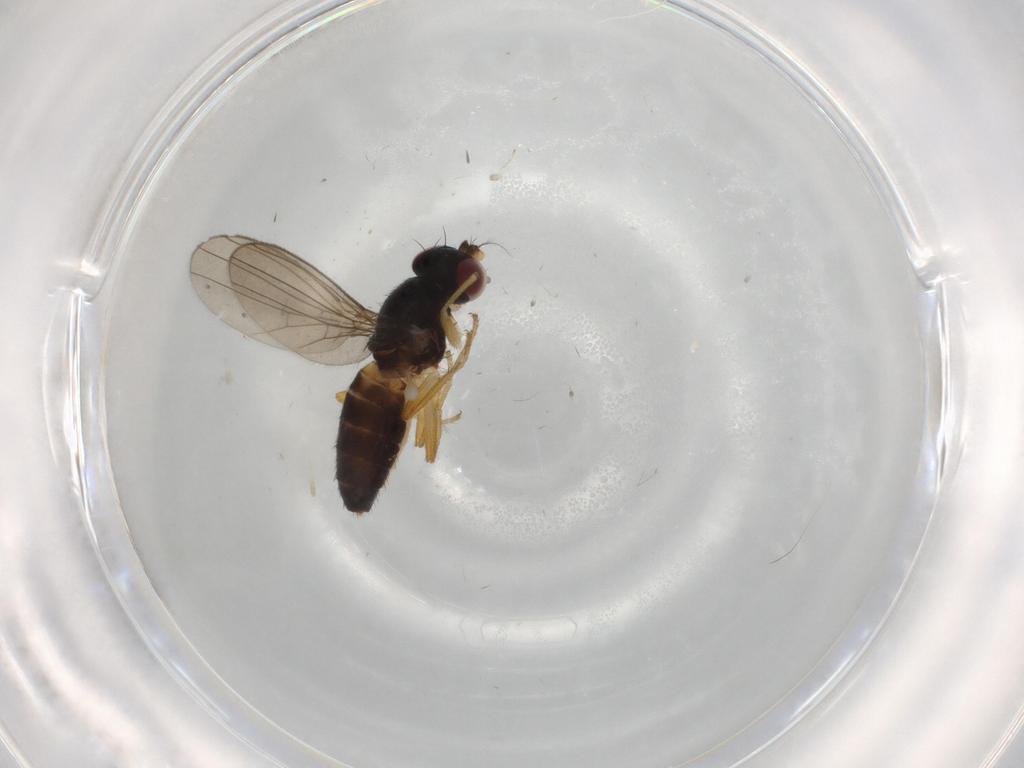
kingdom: Animalia
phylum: Arthropoda
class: Insecta
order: Diptera
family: Anthomyzidae
